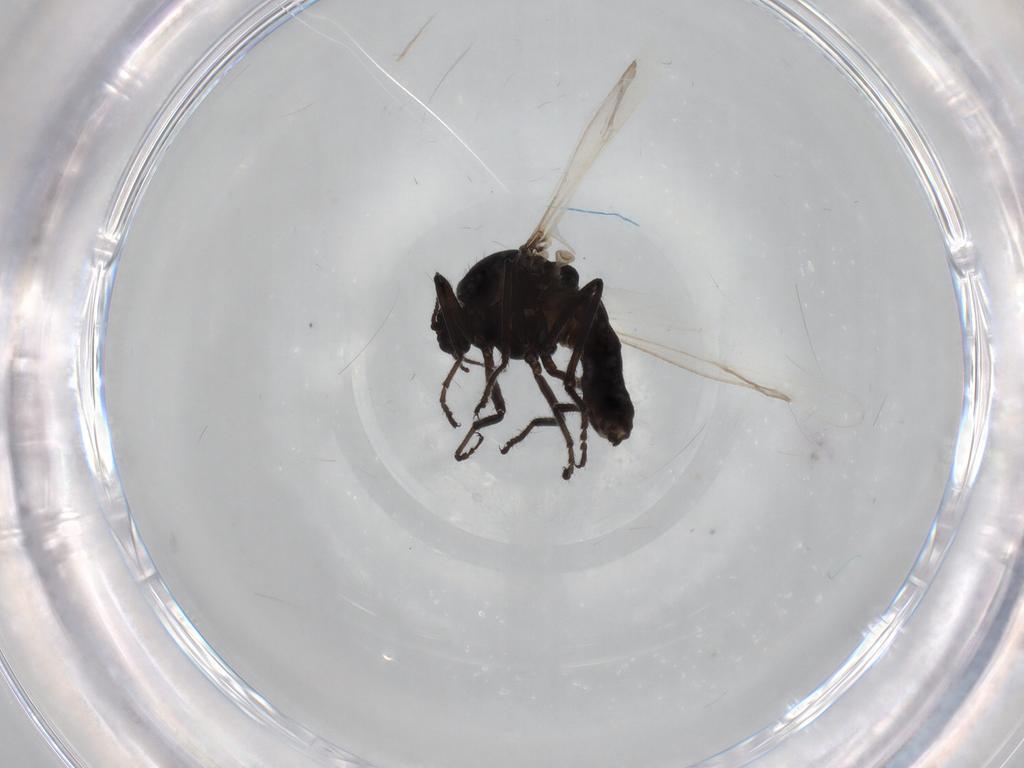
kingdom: Animalia
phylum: Arthropoda
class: Insecta
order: Diptera
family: Ceratopogonidae
